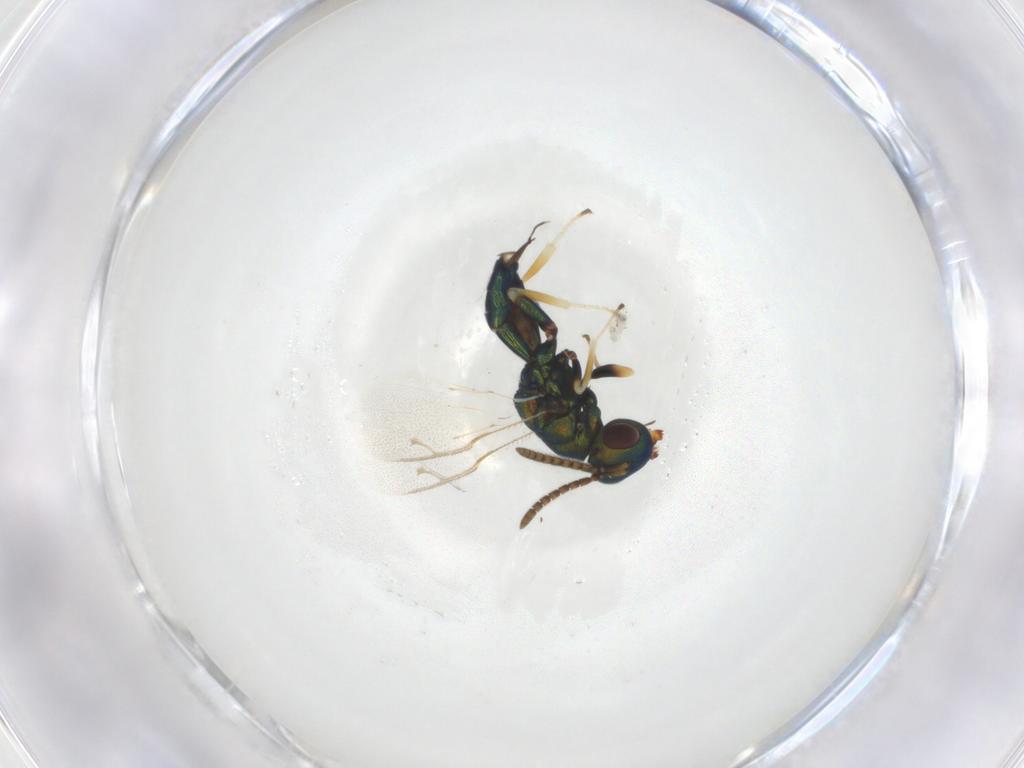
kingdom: Animalia
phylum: Arthropoda
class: Insecta
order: Hymenoptera
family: Pteromalidae
